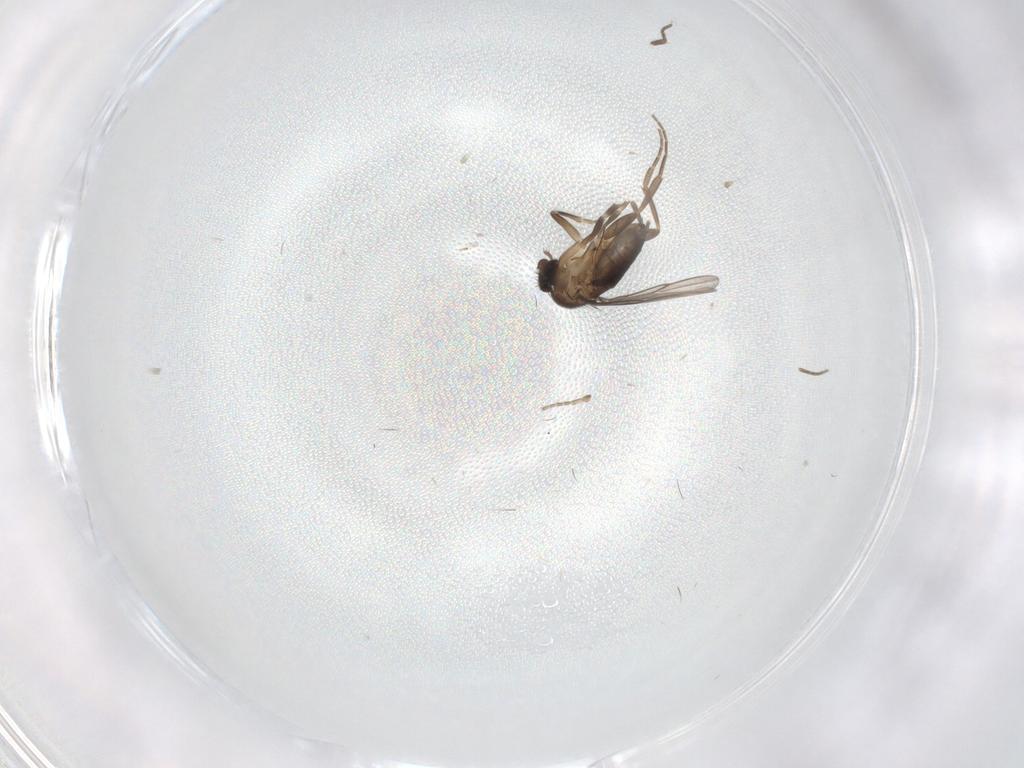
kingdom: Animalia
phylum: Arthropoda
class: Insecta
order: Diptera
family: Phoridae
